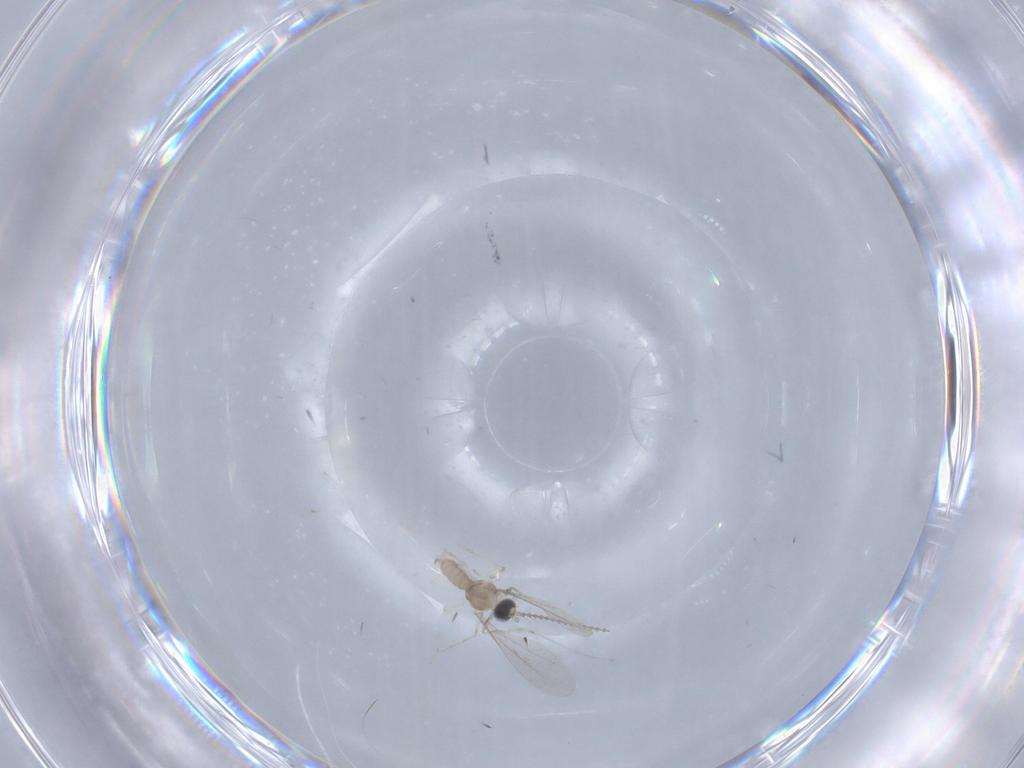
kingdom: Animalia
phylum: Arthropoda
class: Insecta
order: Diptera
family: Cecidomyiidae
